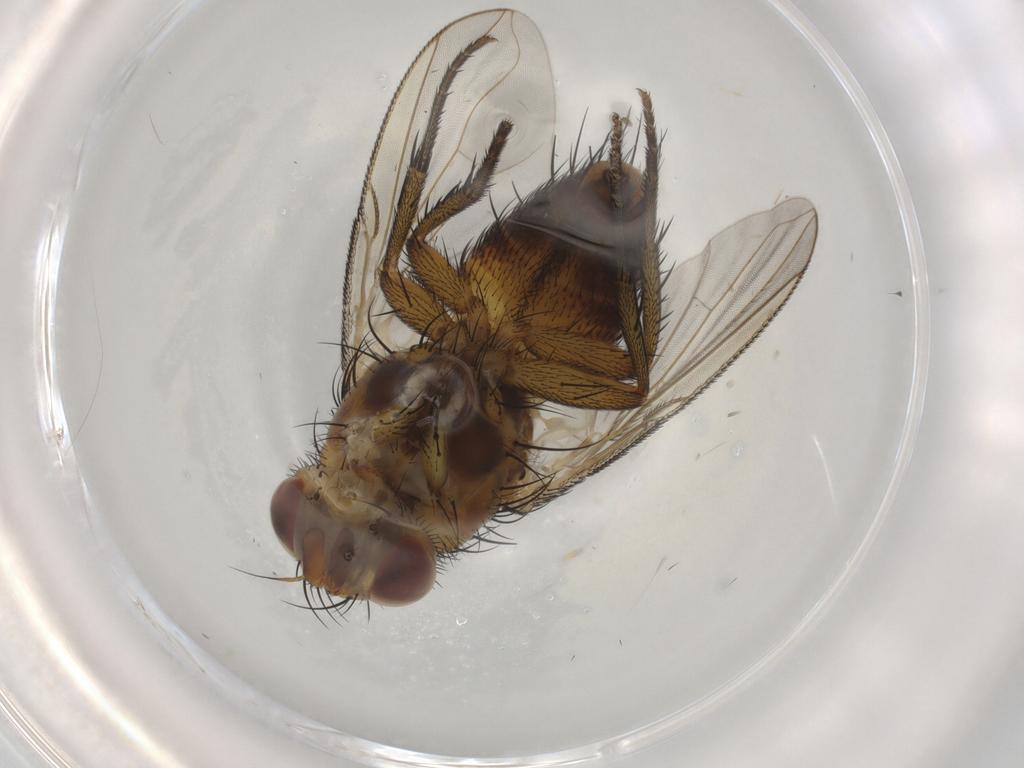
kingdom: Animalia
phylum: Arthropoda
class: Insecta
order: Diptera
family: Tachinidae
